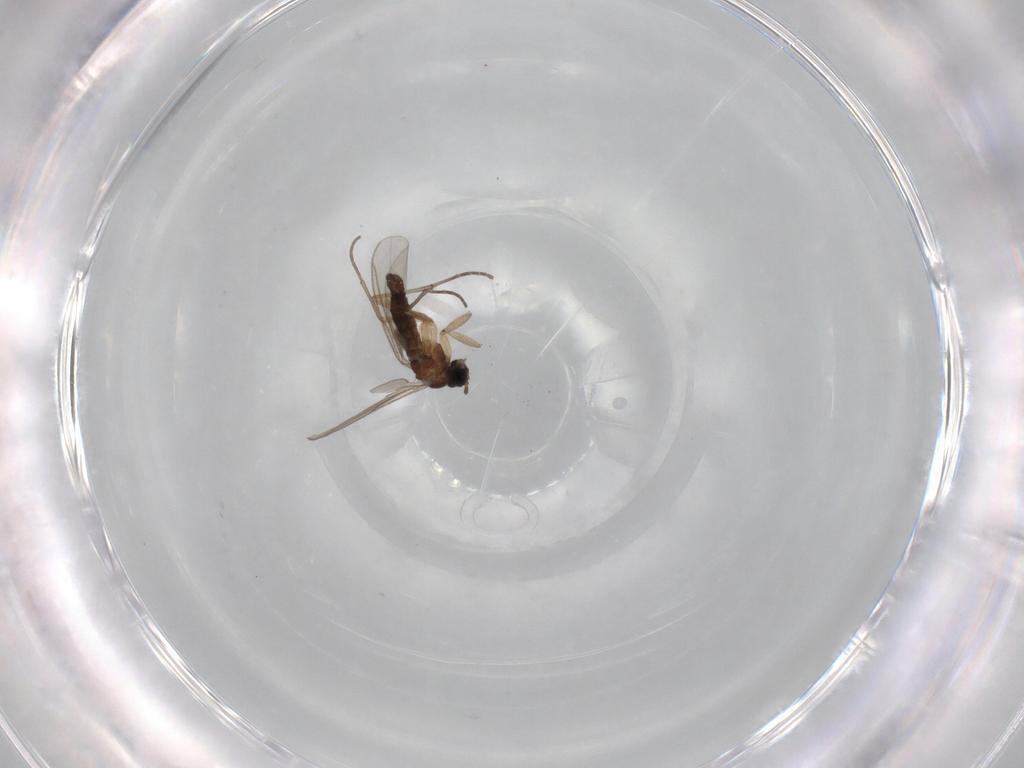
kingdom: Animalia
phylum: Arthropoda
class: Insecta
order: Diptera
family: Sciaridae
